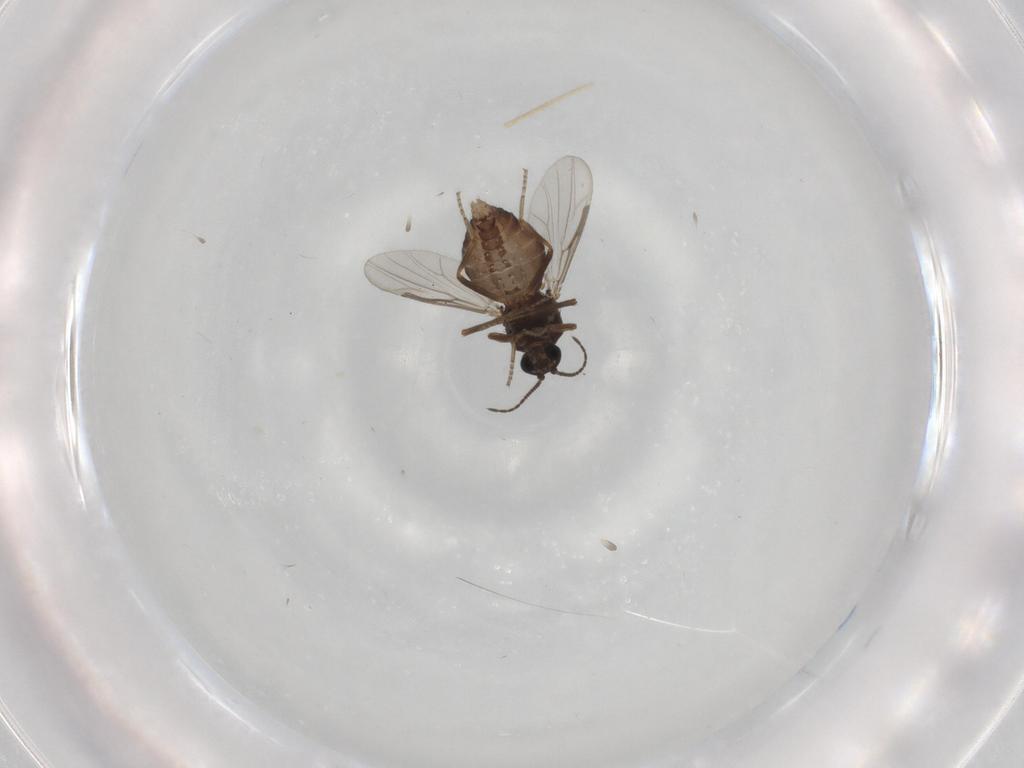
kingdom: Animalia
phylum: Arthropoda
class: Insecta
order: Diptera
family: Ceratopogonidae
